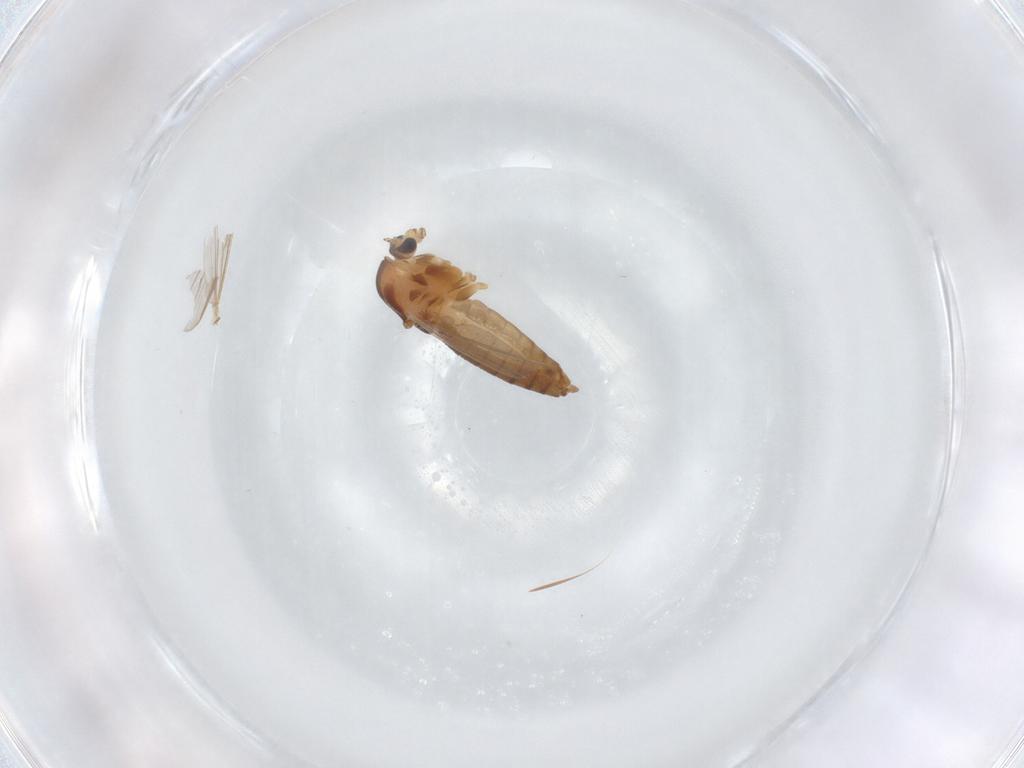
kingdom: Animalia
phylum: Arthropoda
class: Insecta
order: Diptera
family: Chironomidae
